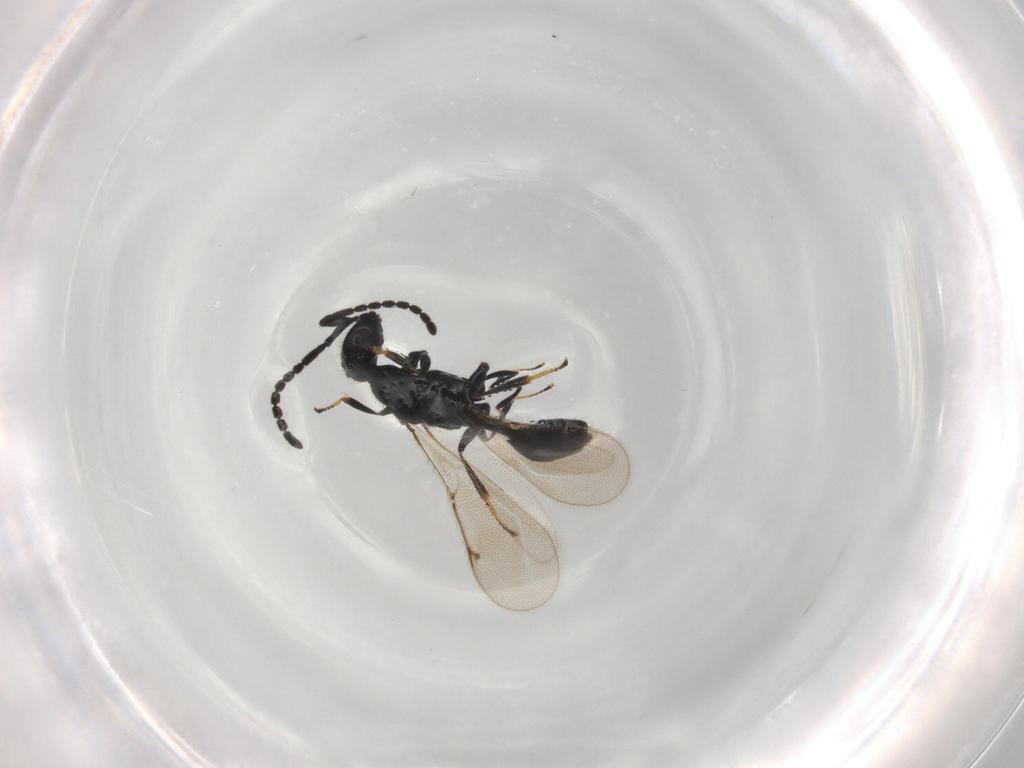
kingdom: Animalia
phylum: Arthropoda
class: Insecta
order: Hymenoptera
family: Pteromalidae
